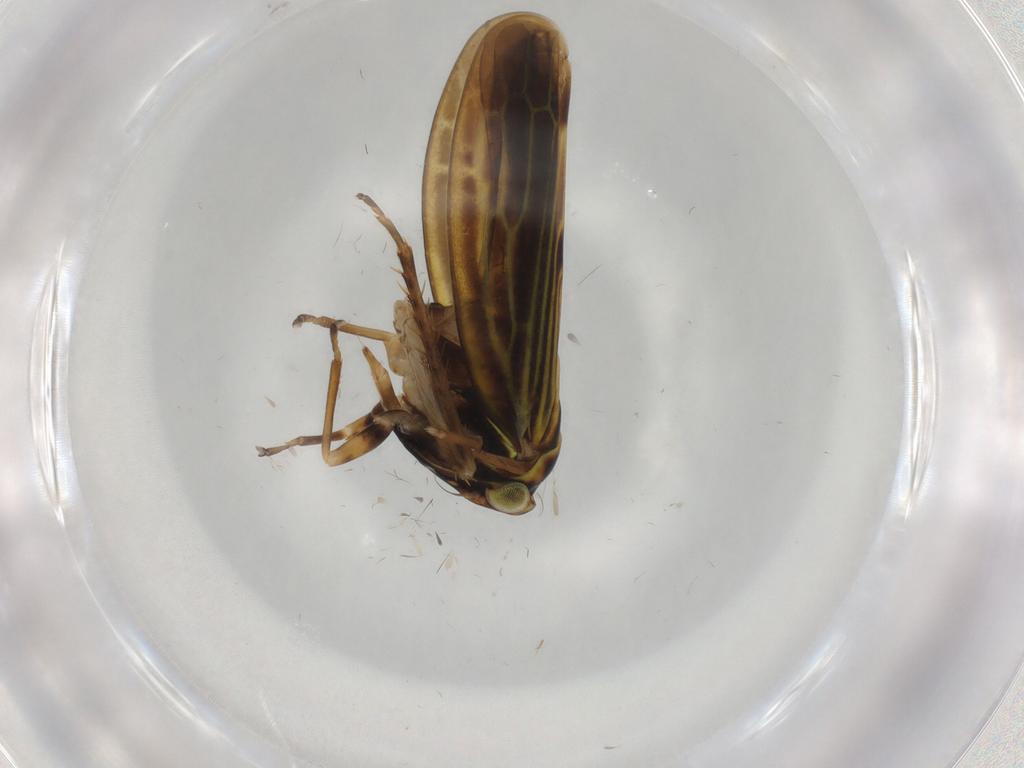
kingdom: Animalia
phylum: Arthropoda
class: Insecta
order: Hemiptera
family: Cicadellidae
